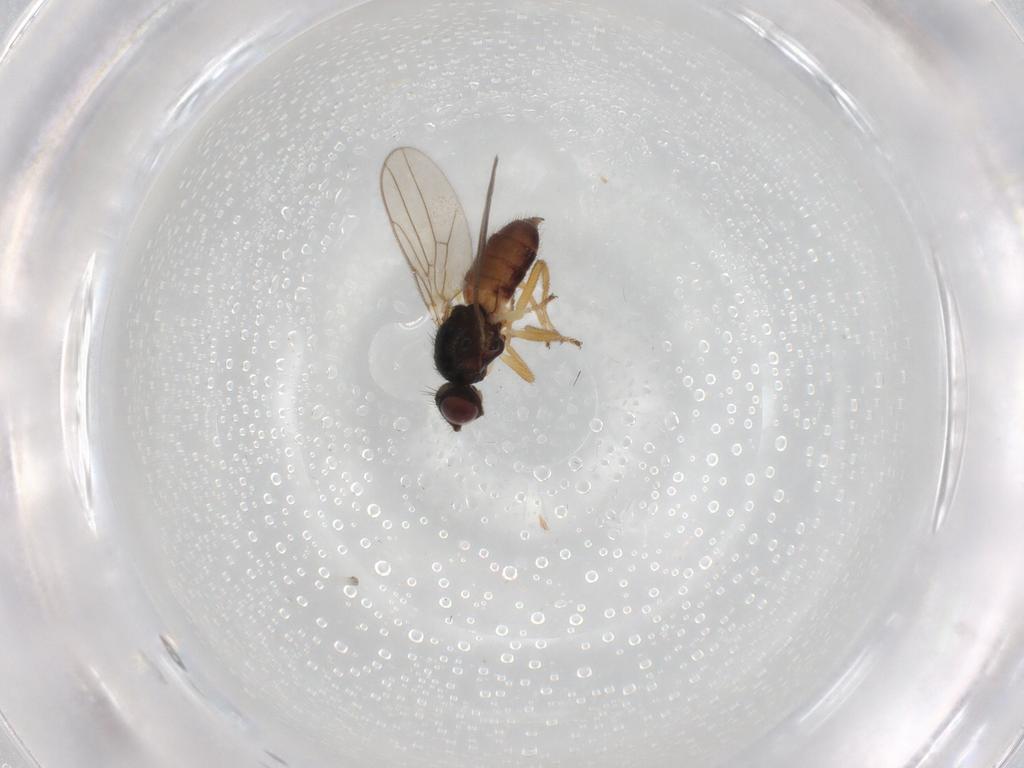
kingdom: Animalia
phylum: Arthropoda
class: Insecta
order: Diptera
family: Chloropidae
